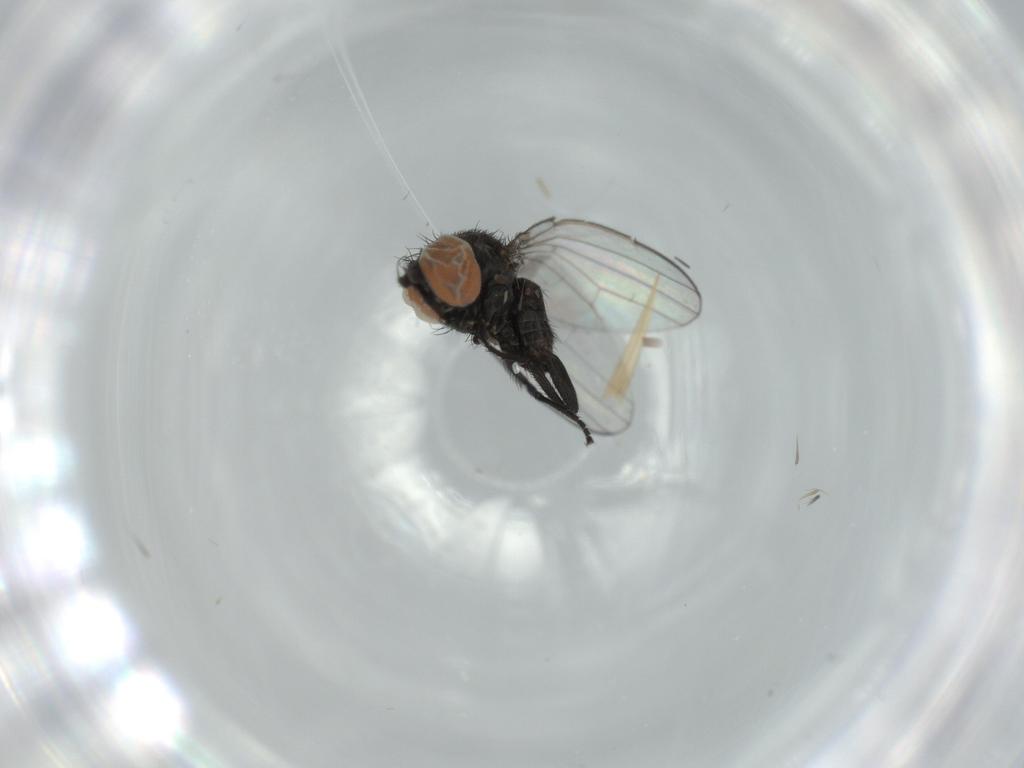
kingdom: Animalia
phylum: Arthropoda
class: Insecta
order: Diptera
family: Milichiidae
